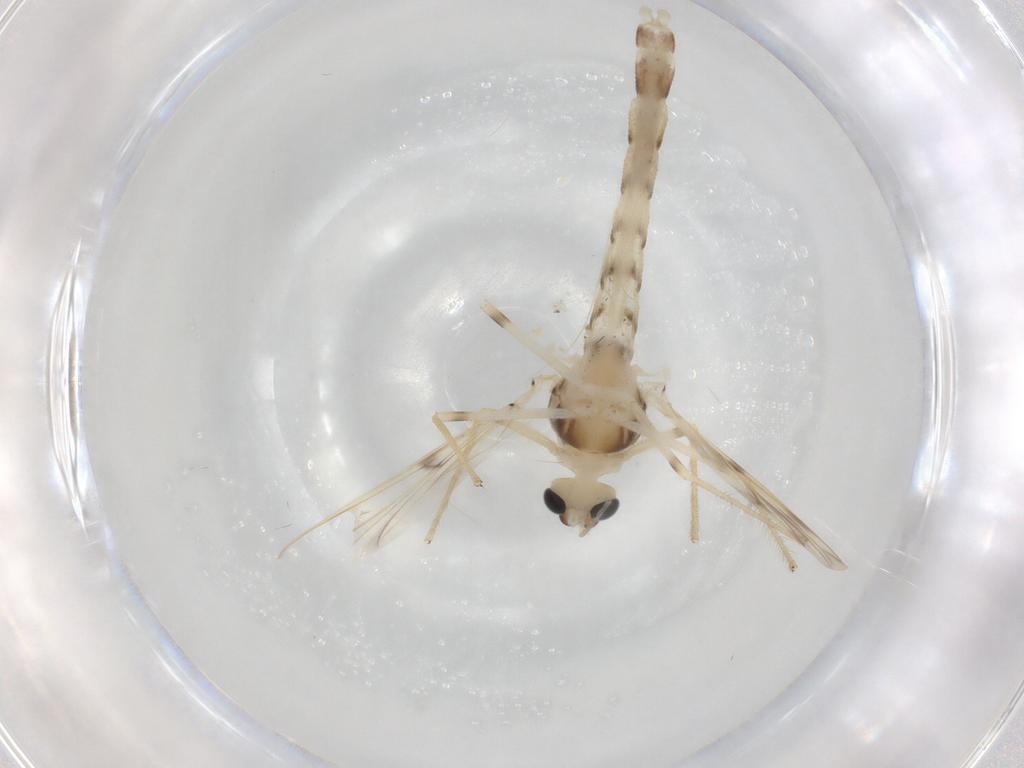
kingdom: Animalia
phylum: Arthropoda
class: Insecta
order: Diptera
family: Chironomidae
